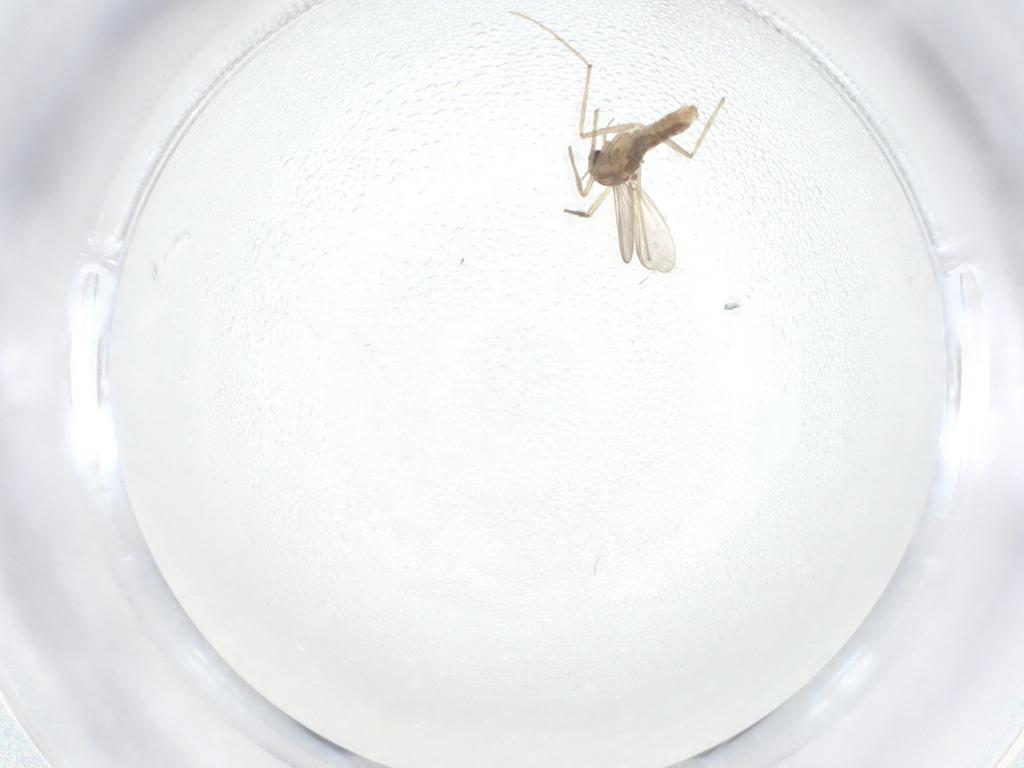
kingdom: Animalia
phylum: Arthropoda
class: Insecta
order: Diptera
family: Chironomidae
